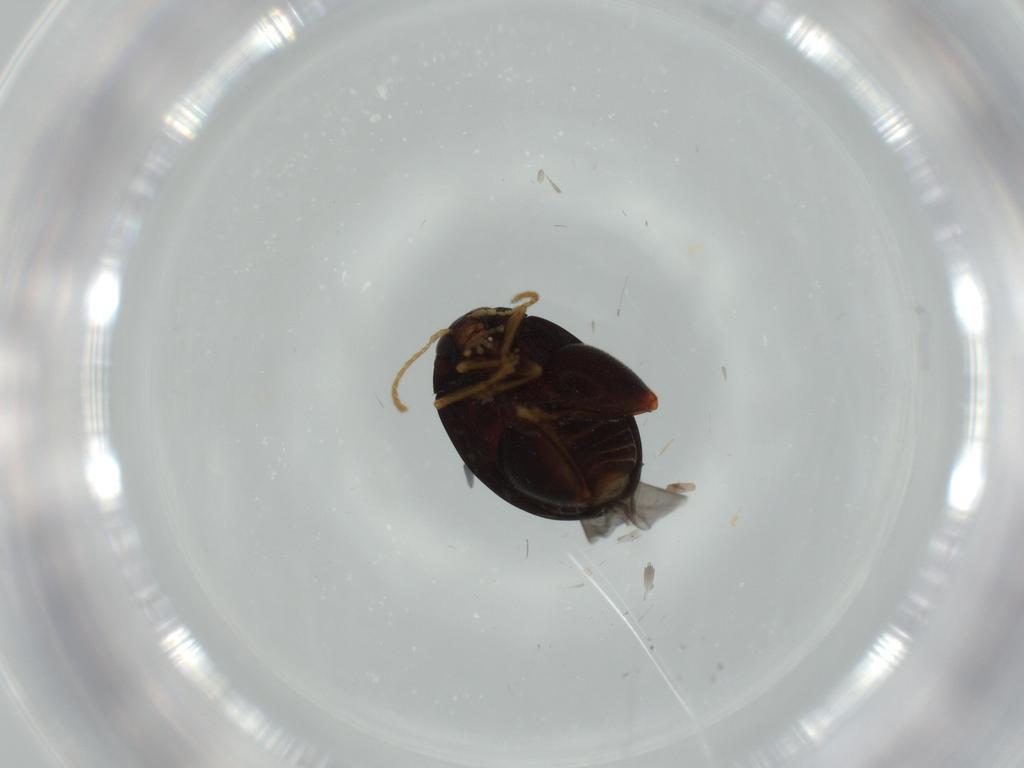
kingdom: Animalia
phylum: Arthropoda
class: Insecta
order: Coleoptera
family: Chrysomelidae
